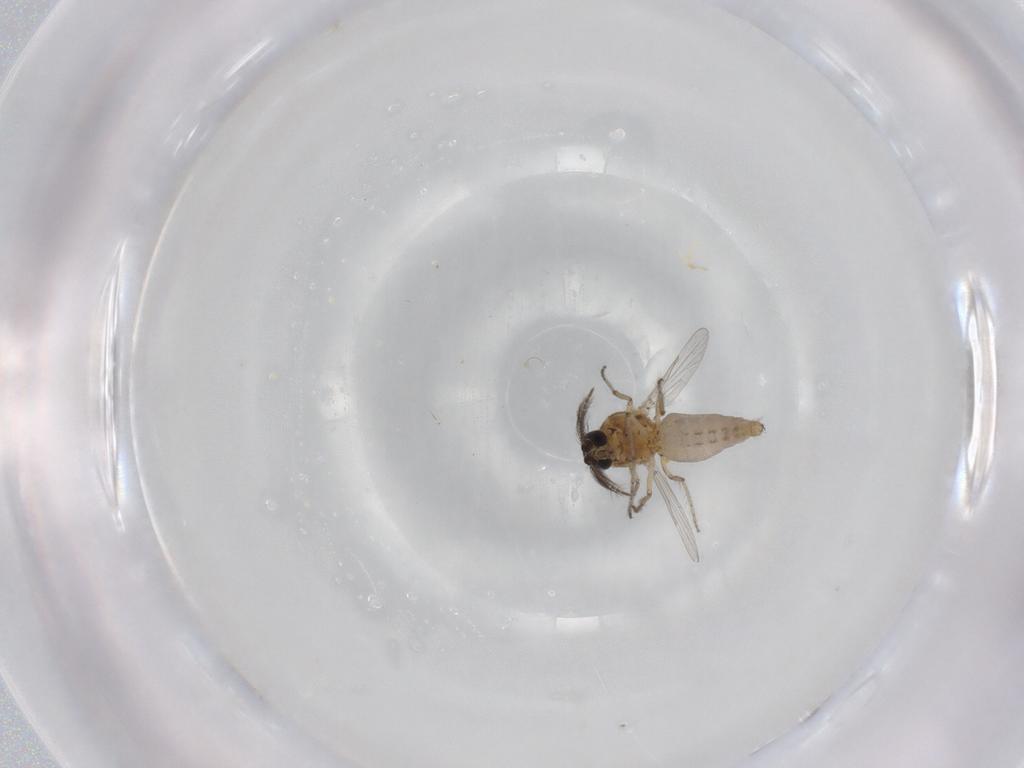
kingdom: Animalia
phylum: Arthropoda
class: Insecta
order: Diptera
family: Ceratopogonidae
